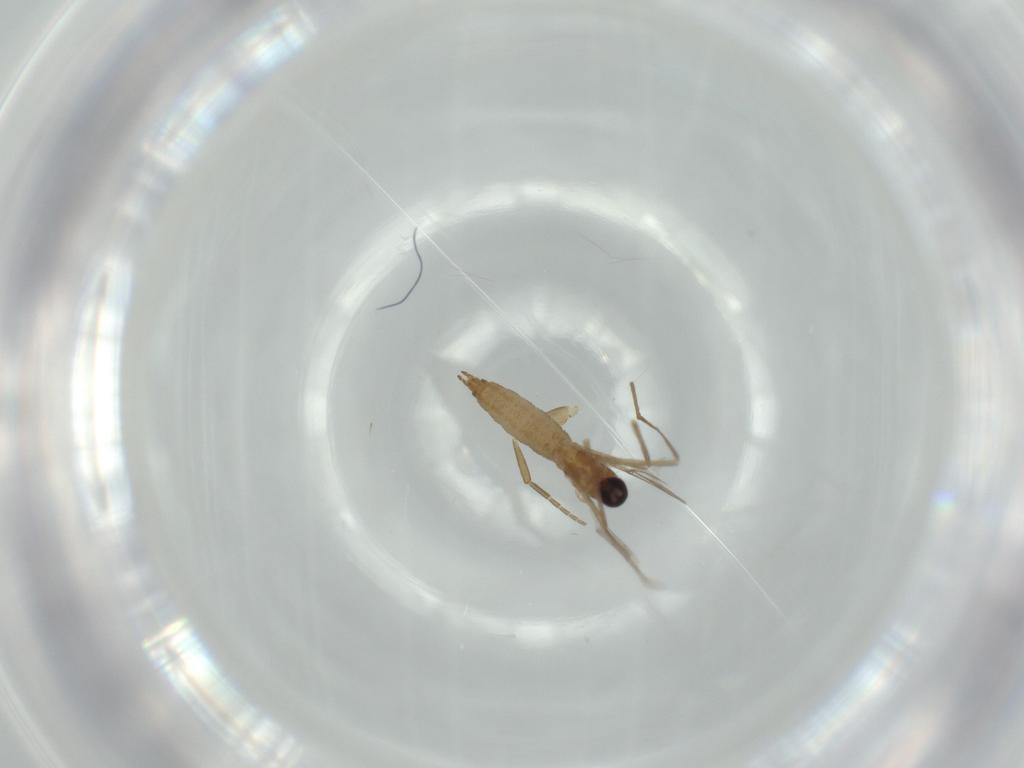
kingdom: Animalia
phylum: Arthropoda
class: Insecta
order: Diptera
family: Cecidomyiidae
